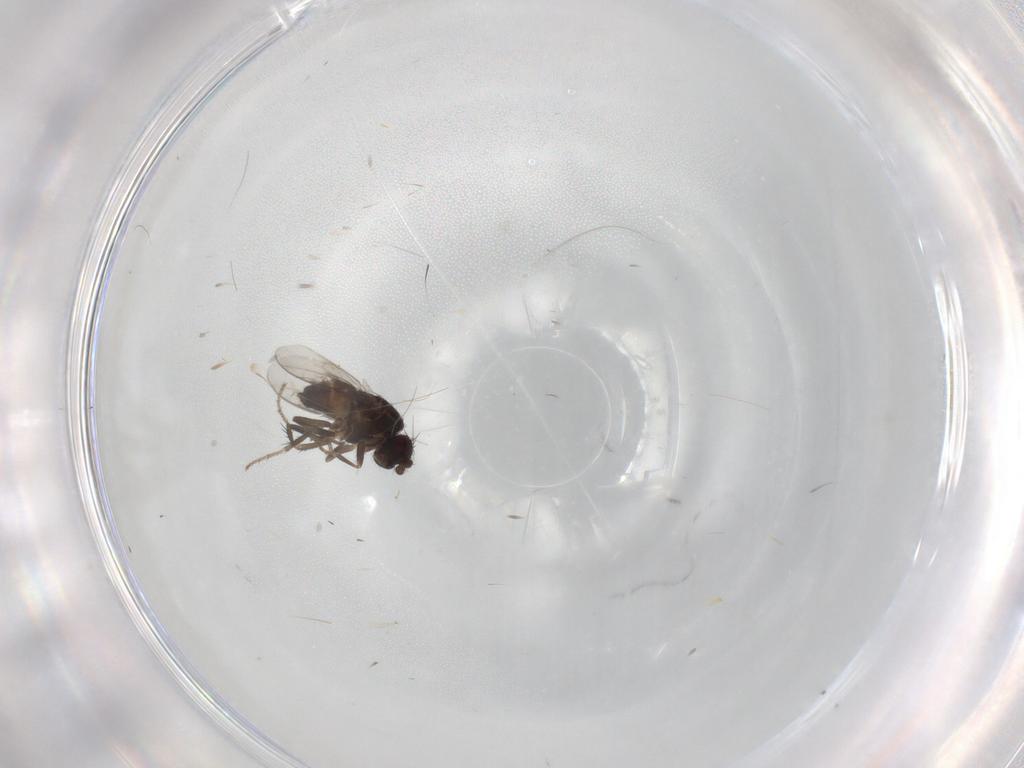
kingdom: Animalia
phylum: Arthropoda
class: Insecta
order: Diptera
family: Sphaeroceridae
